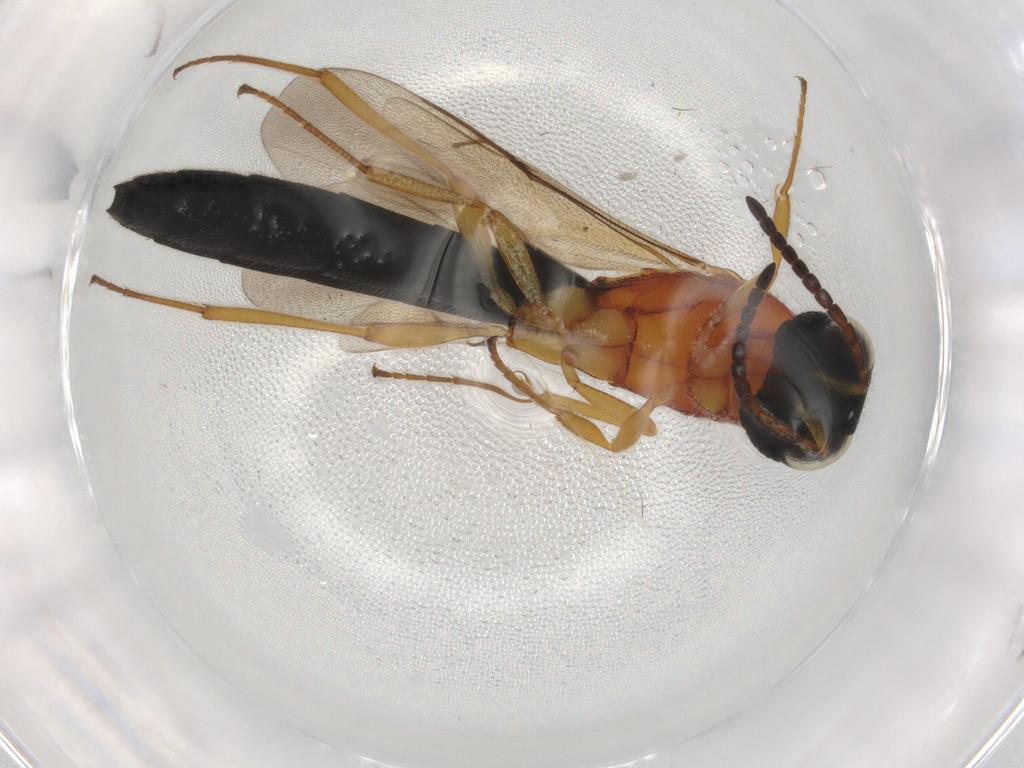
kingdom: Animalia
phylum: Arthropoda
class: Insecta
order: Hymenoptera
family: Scelionidae
